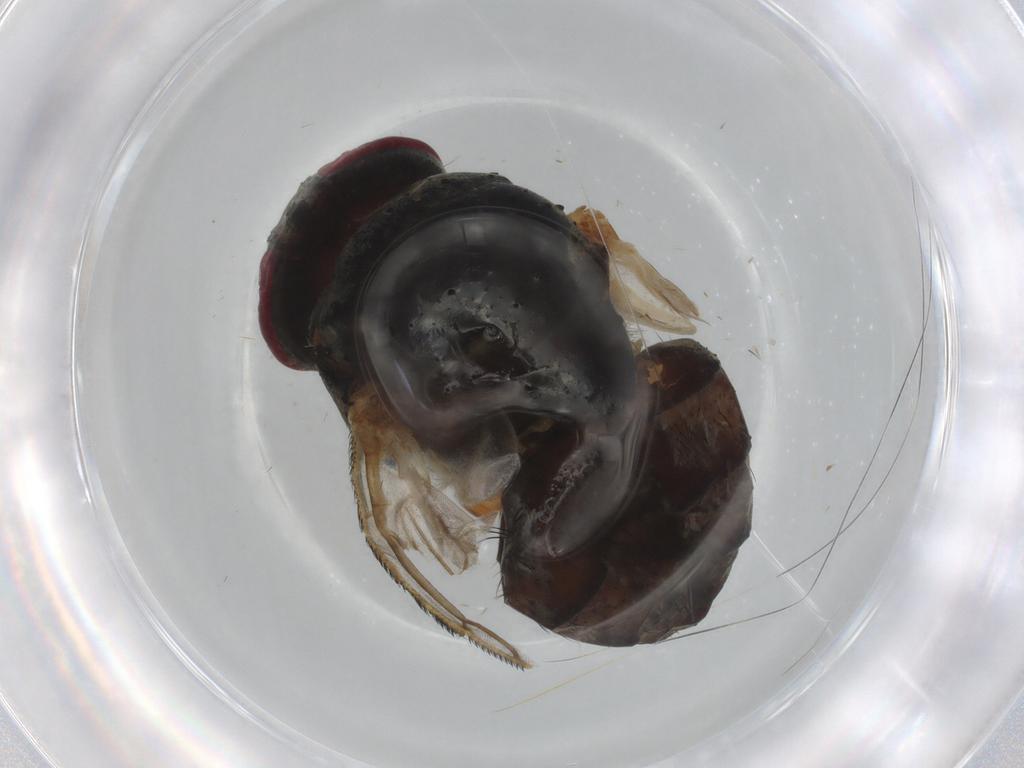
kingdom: Animalia
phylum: Arthropoda
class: Insecta
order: Diptera
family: Calliphoridae
